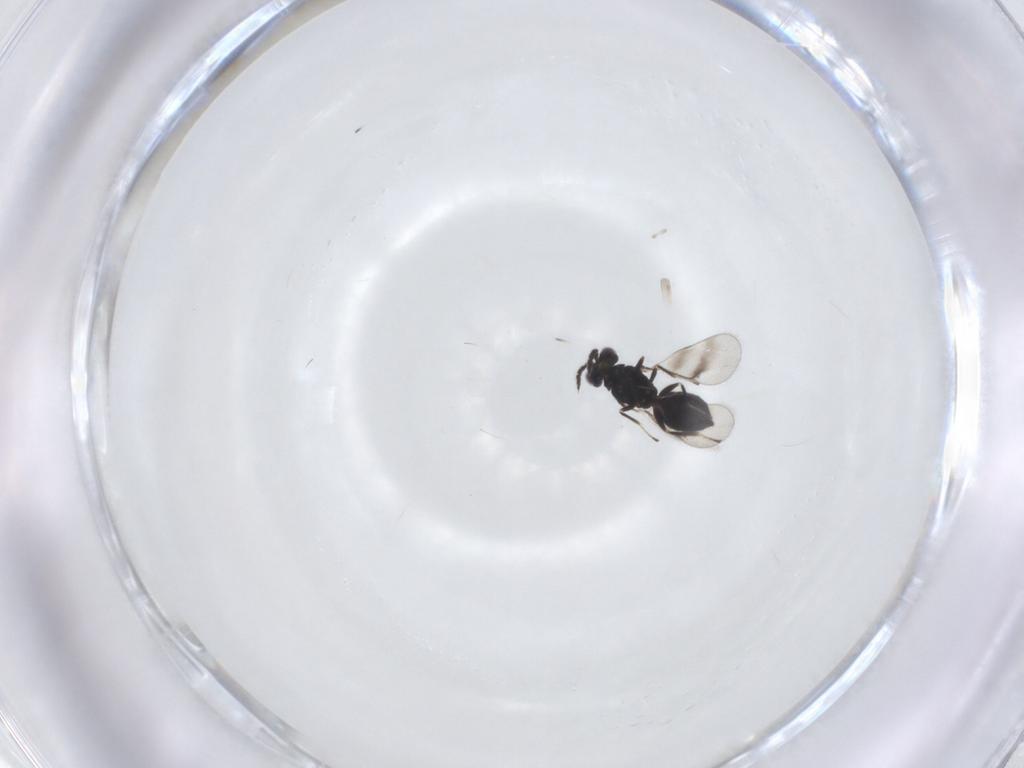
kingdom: Animalia
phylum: Arthropoda
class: Insecta
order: Hymenoptera
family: Eulophidae
